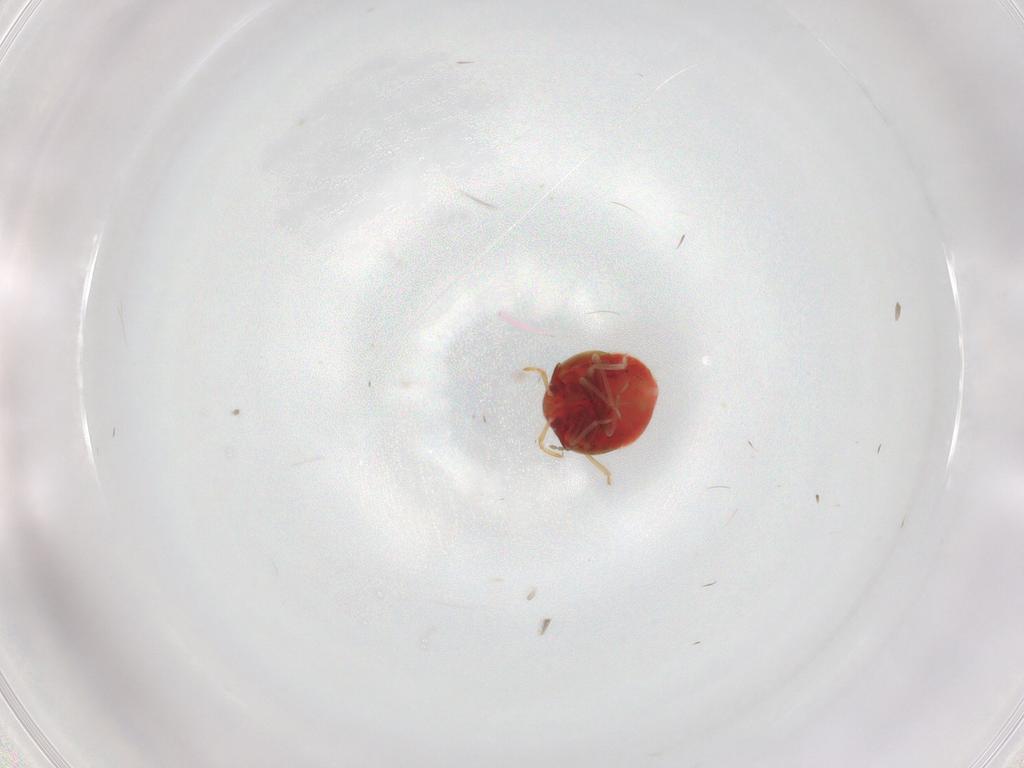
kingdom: Animalia
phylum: Arthropoda
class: Insecta
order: Hemiptera
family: Anthocoridae
